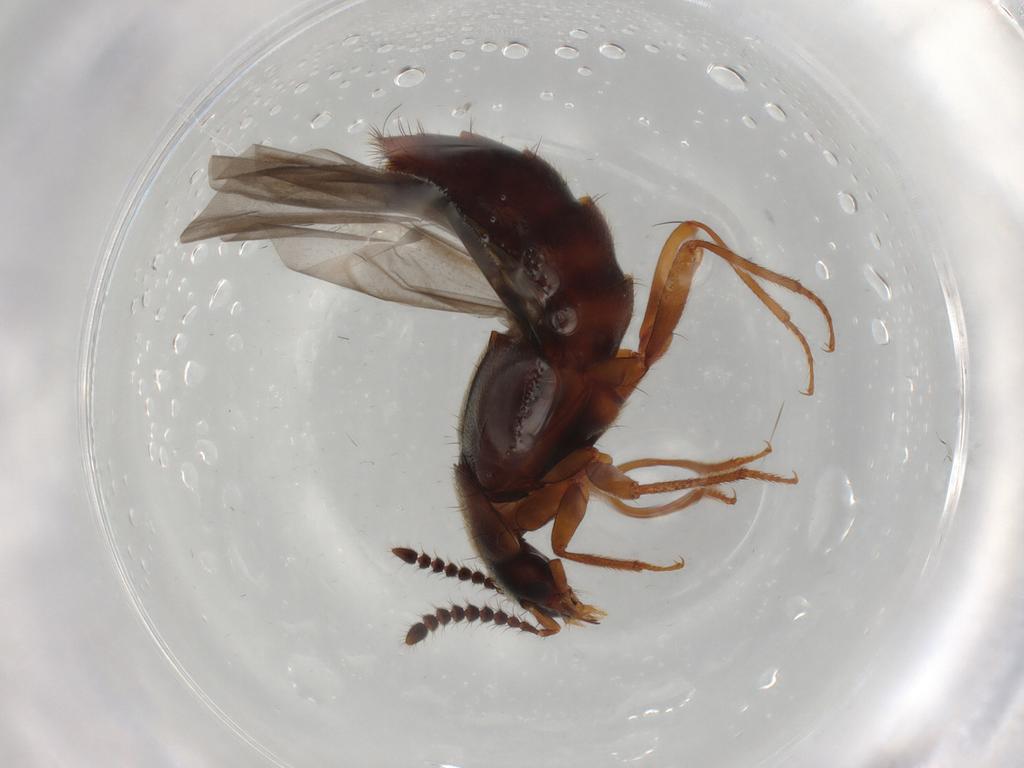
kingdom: Animalia
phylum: Arthropoda
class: Insecta
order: Coleoptera
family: Staphylinidae
